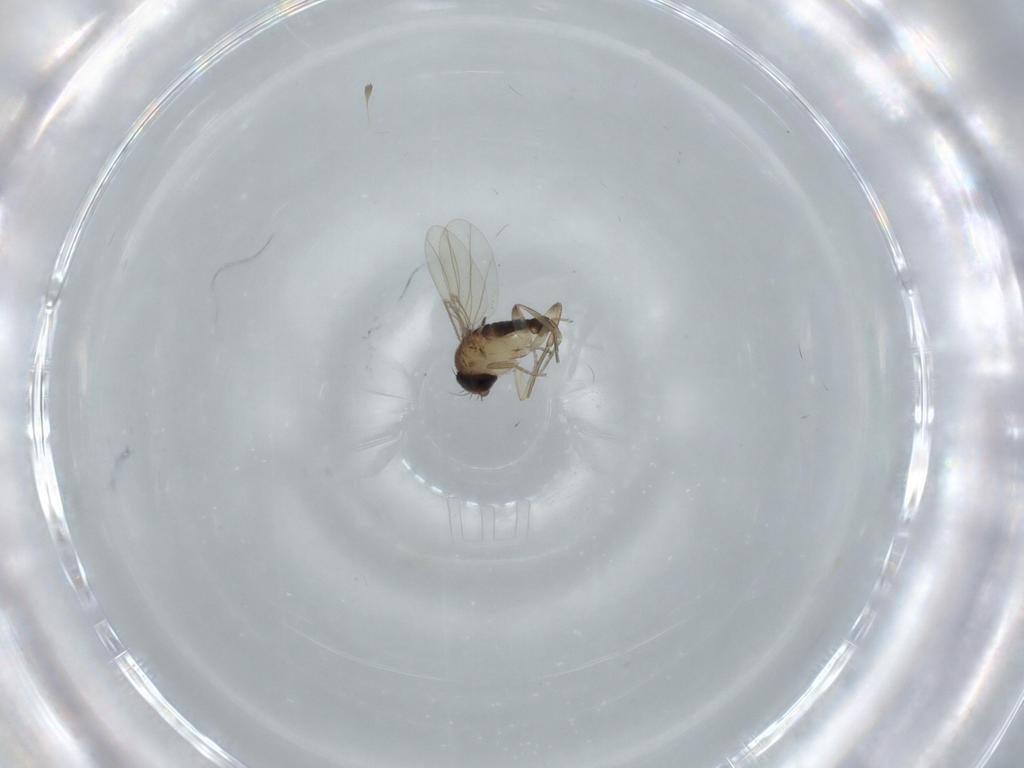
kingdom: Animalia
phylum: Arthropoda
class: Insecta
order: Diptera
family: Phoridae
